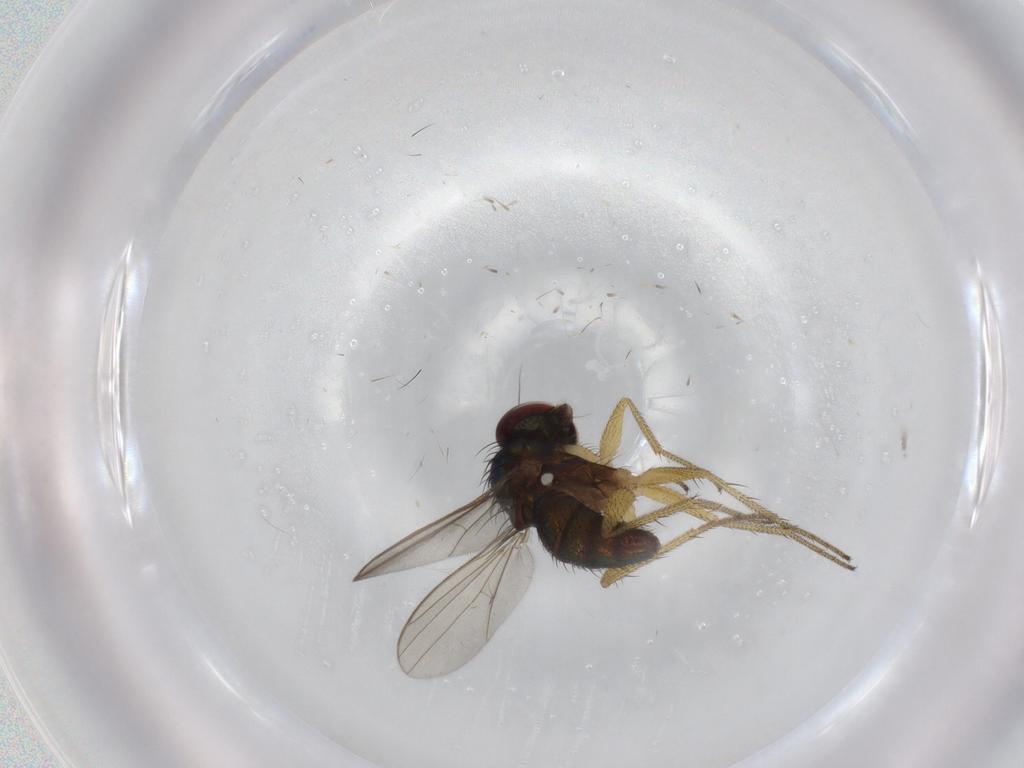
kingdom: Animalia
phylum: Arthropoda
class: Insecta
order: Diptera
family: Dolichopodidae
